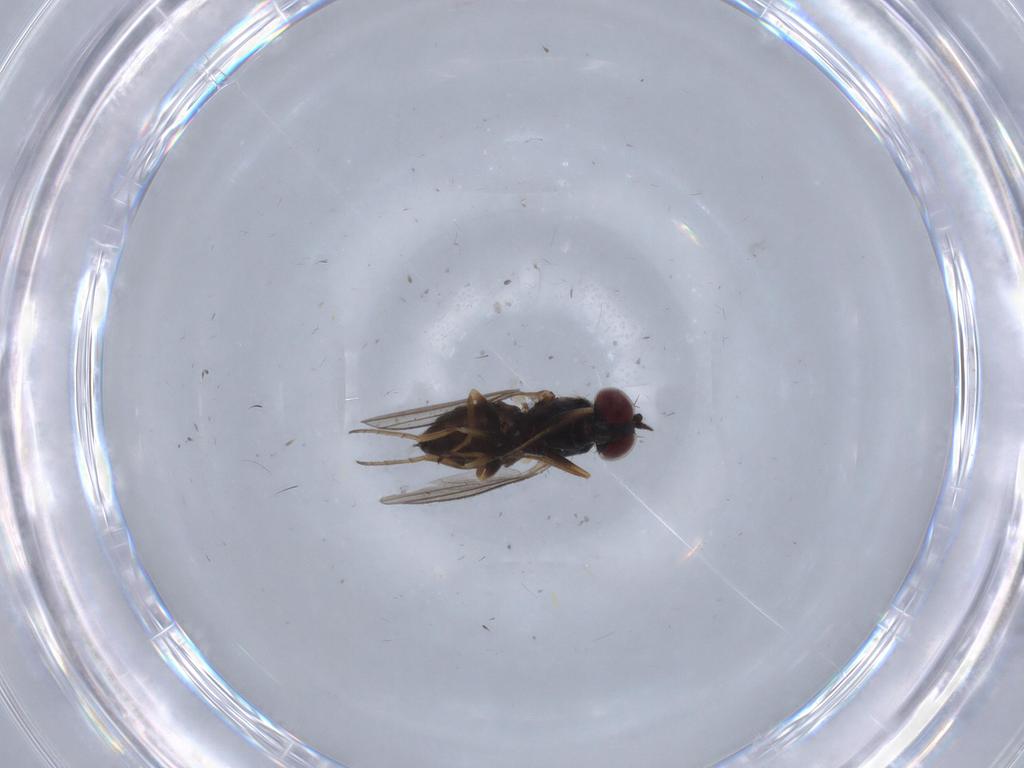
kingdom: Animalia
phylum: Arthropoda
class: Insecta
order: Diptera
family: Dolichopodidae
